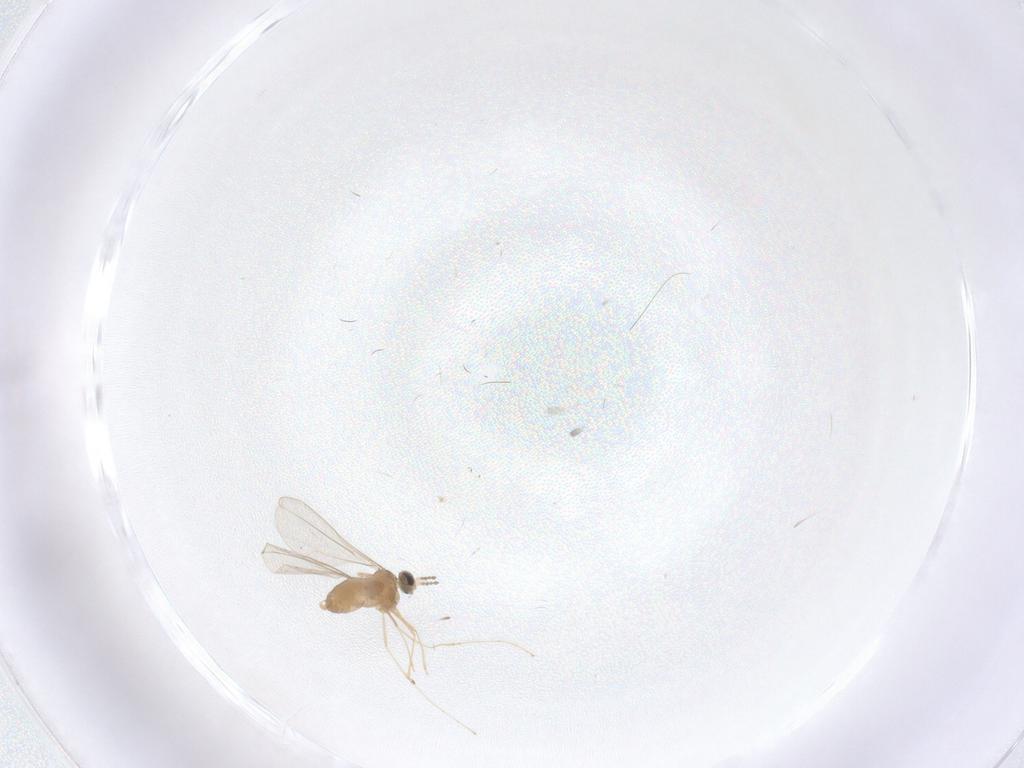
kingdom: Animalia
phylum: Arthropoda
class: Insecta
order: Diptera
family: Cecidomyiidae
